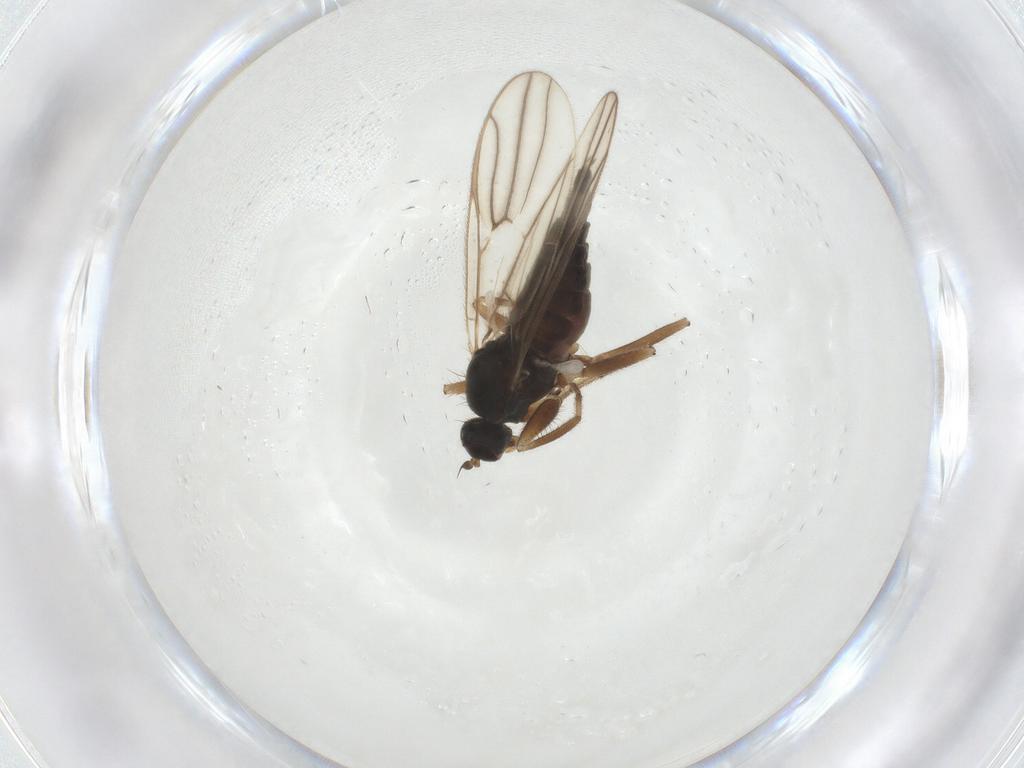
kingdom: Animalia
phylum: Arthropoda
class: Insecta
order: Diptera
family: Hybotidae
